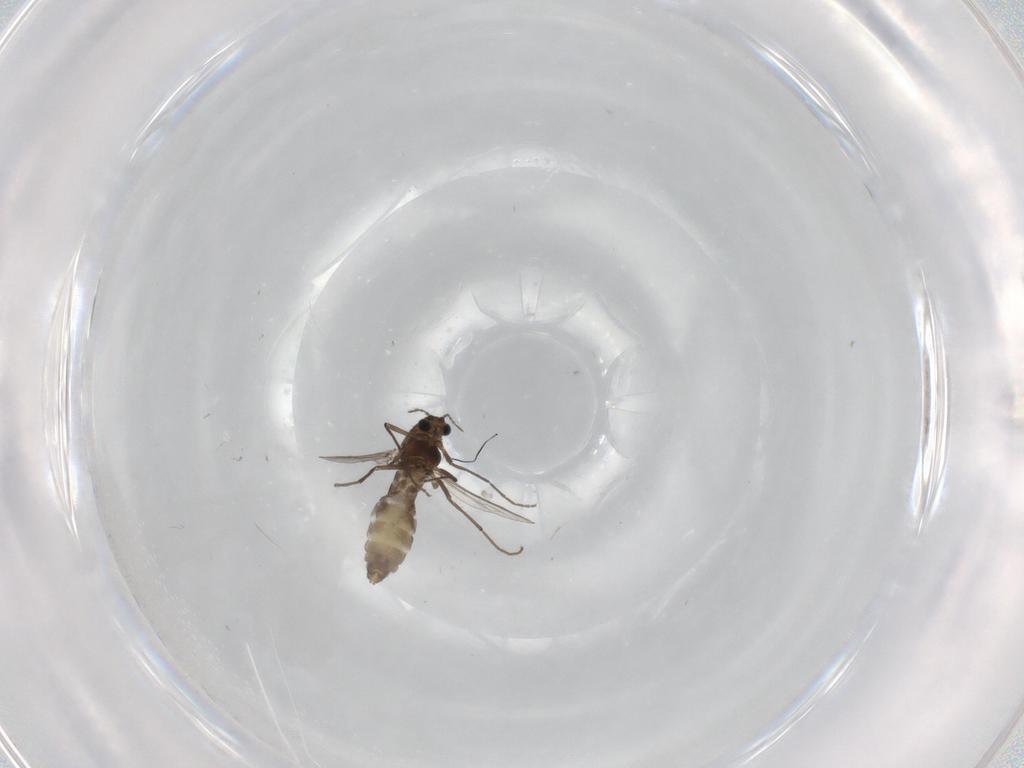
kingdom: Animalia
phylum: Arthropoda
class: Insecta
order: Diptera
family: Chironomidae
